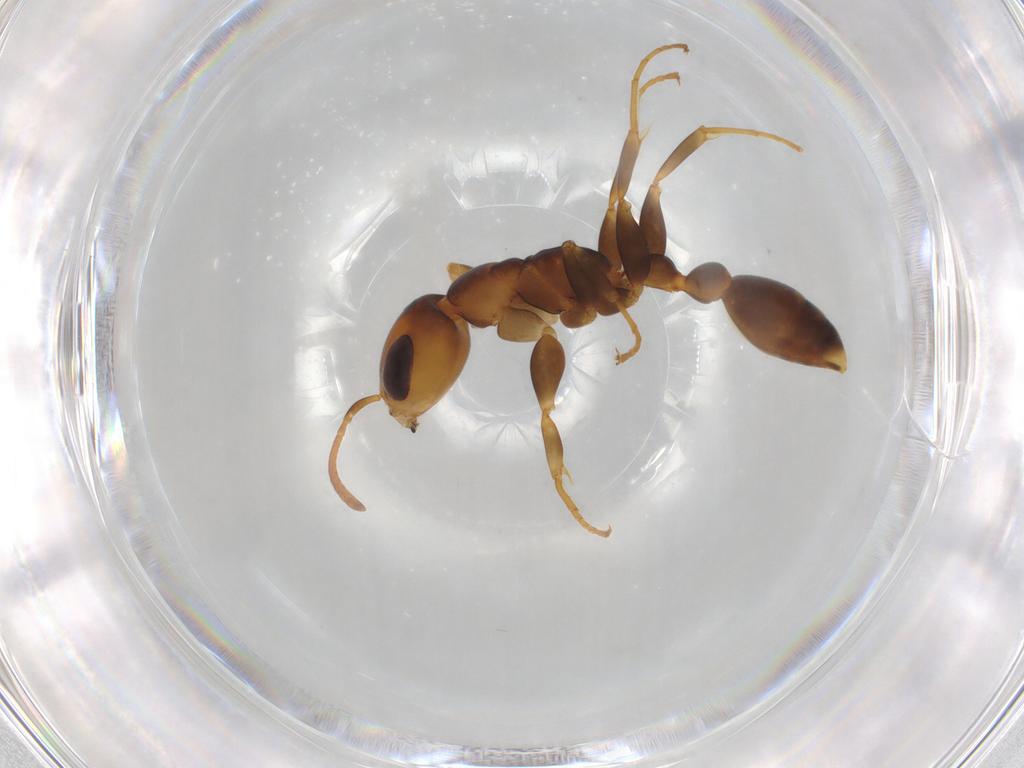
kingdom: Animalia
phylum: Arthropoda
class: Insecta
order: Hymenoptera
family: Formicidae
